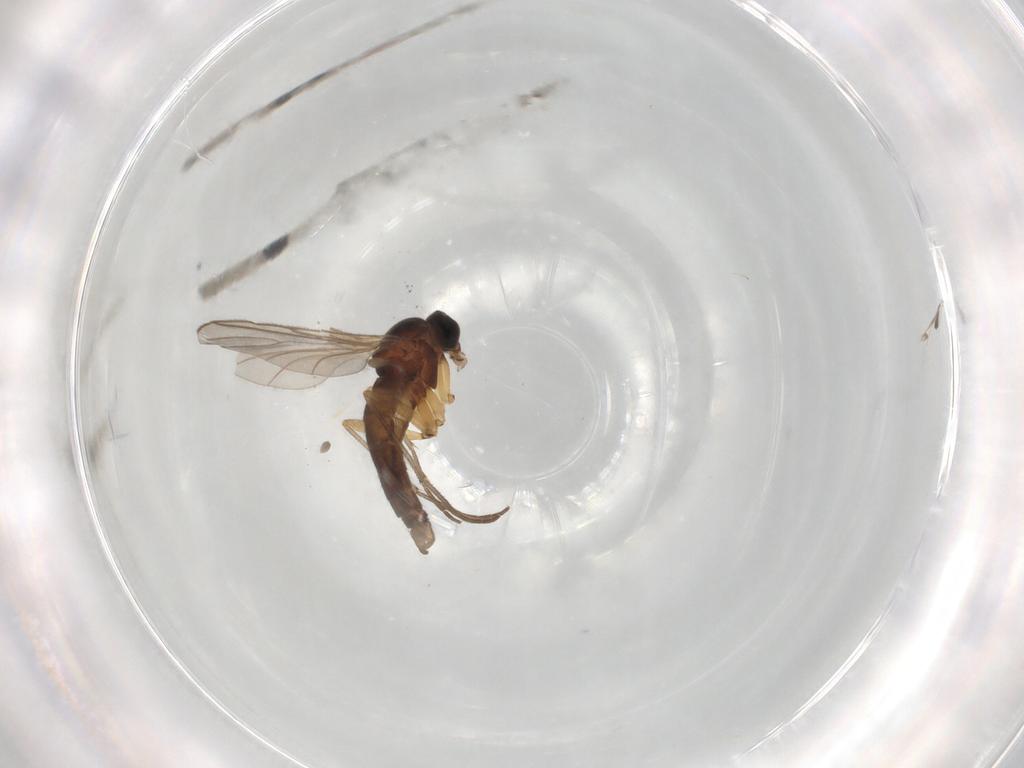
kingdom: Animalia
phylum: Arthropoda
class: Insecta
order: Diptera
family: Sciaridae
